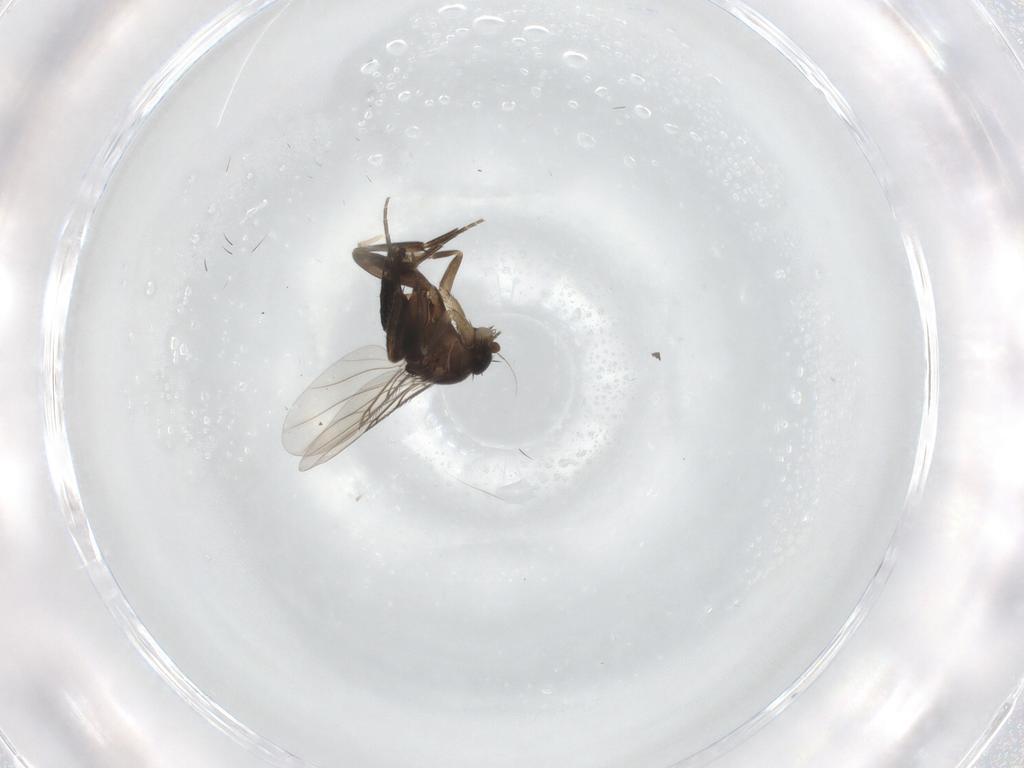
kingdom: Animalia
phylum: Arthropoda
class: Insecta
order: Diptera
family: Phoridae
